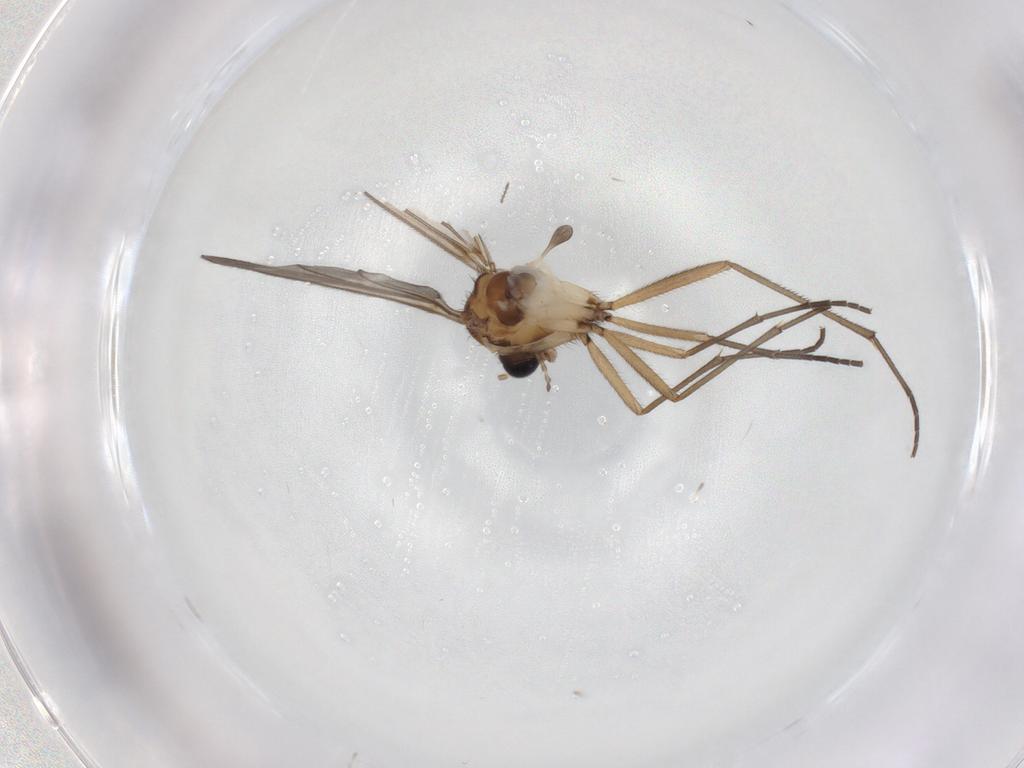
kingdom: Animalia
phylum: Arthropoda
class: Insecta
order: Diptera
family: Sciaridae
